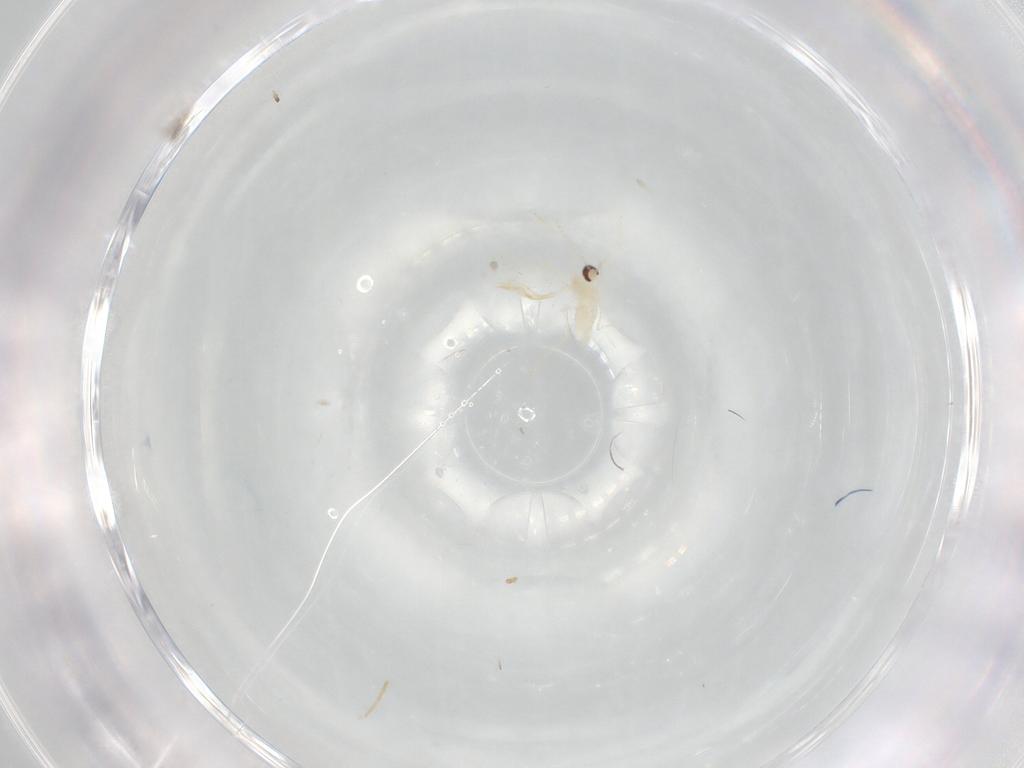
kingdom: Animalia
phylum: Arthropoda
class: Insecta
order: Diptera
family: Cecidomyiidae
